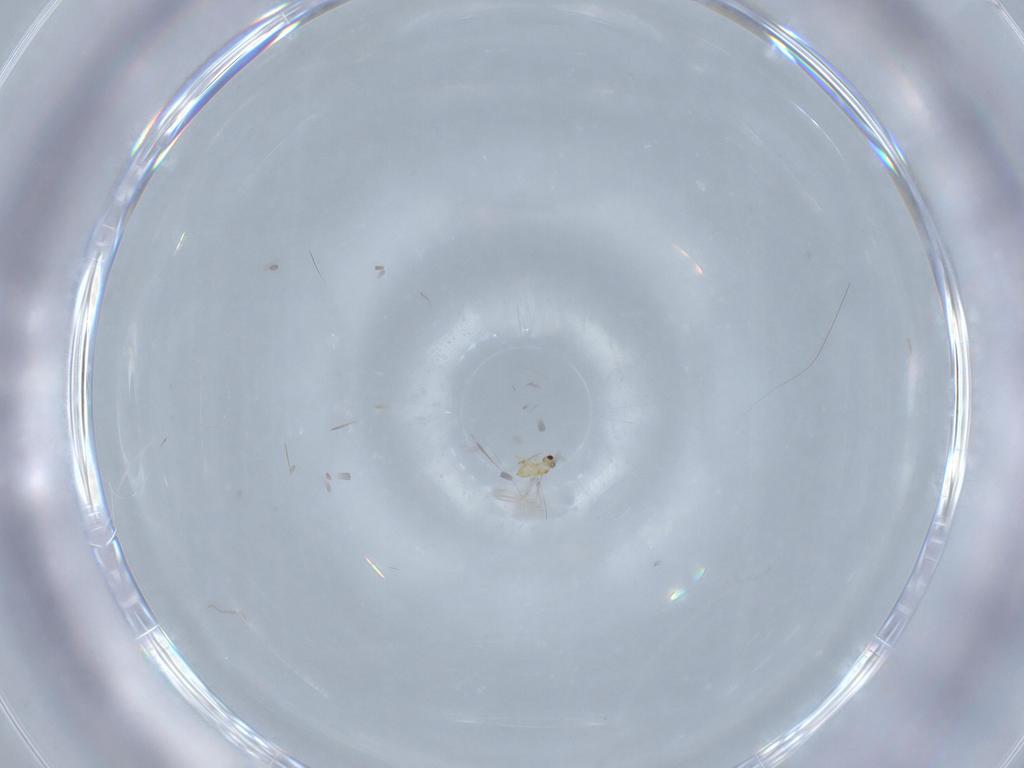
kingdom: Animalia
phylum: Arthropoda
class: Insecta
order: Hymenoptera
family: Mymaridae
